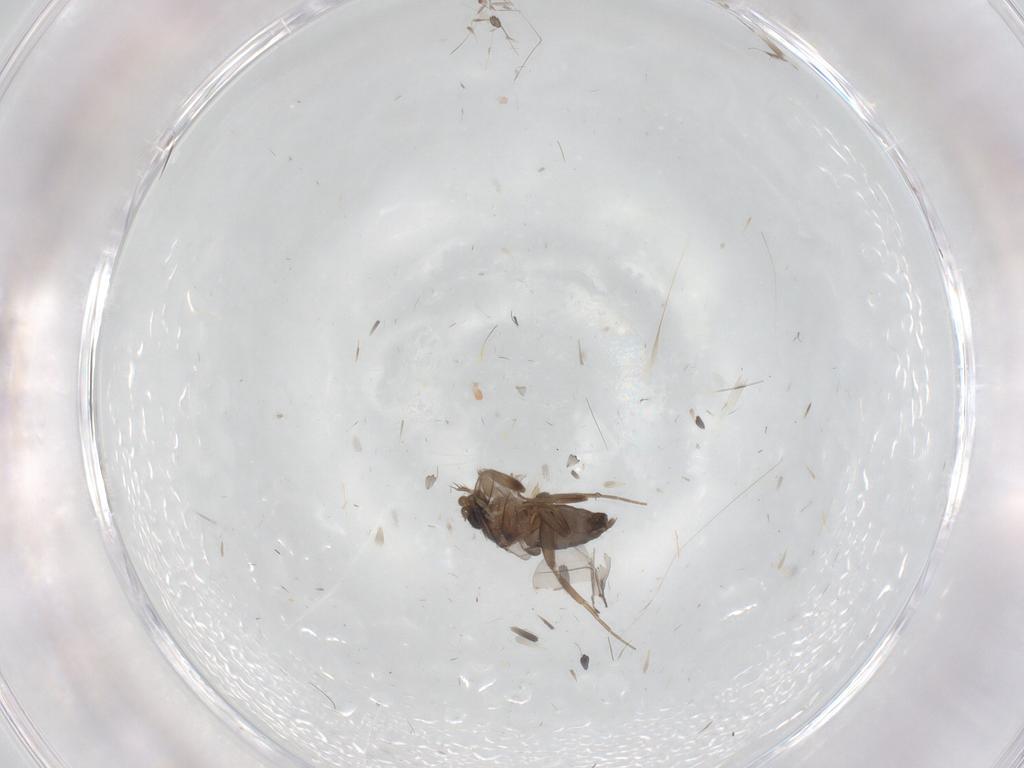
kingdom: Animalia
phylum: Arthropoda
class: Insecta
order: Diptera
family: Phoridae
